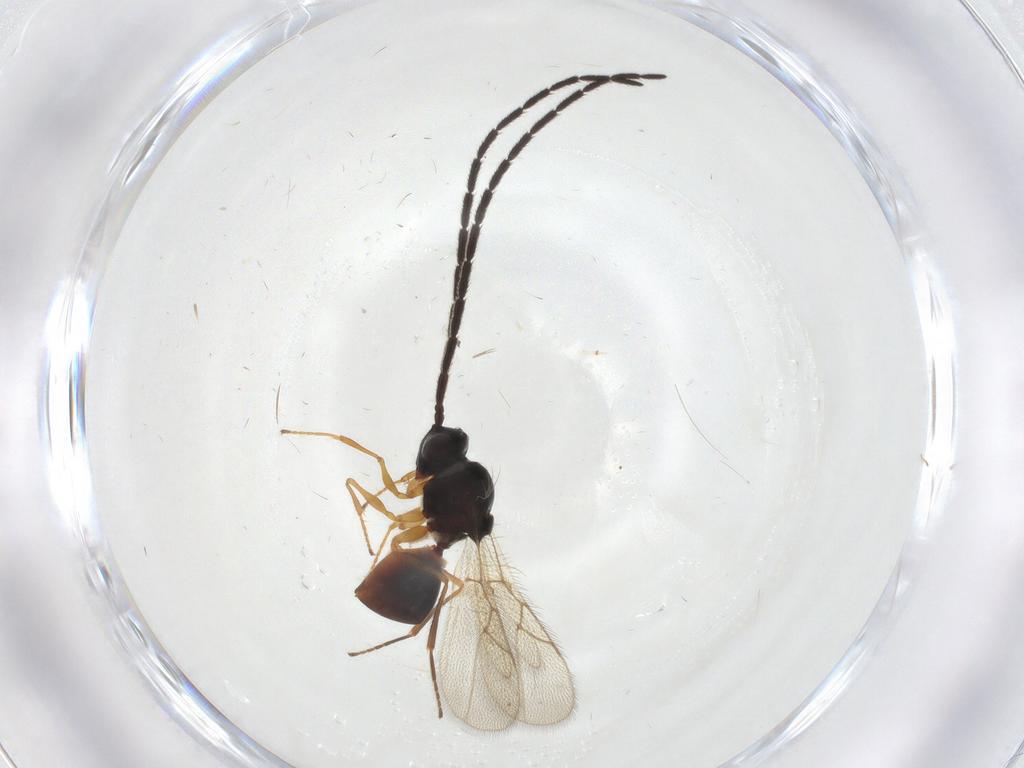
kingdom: Animalia
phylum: Arthropoda
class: Insecta
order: Hymenoptera
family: Figitidae
